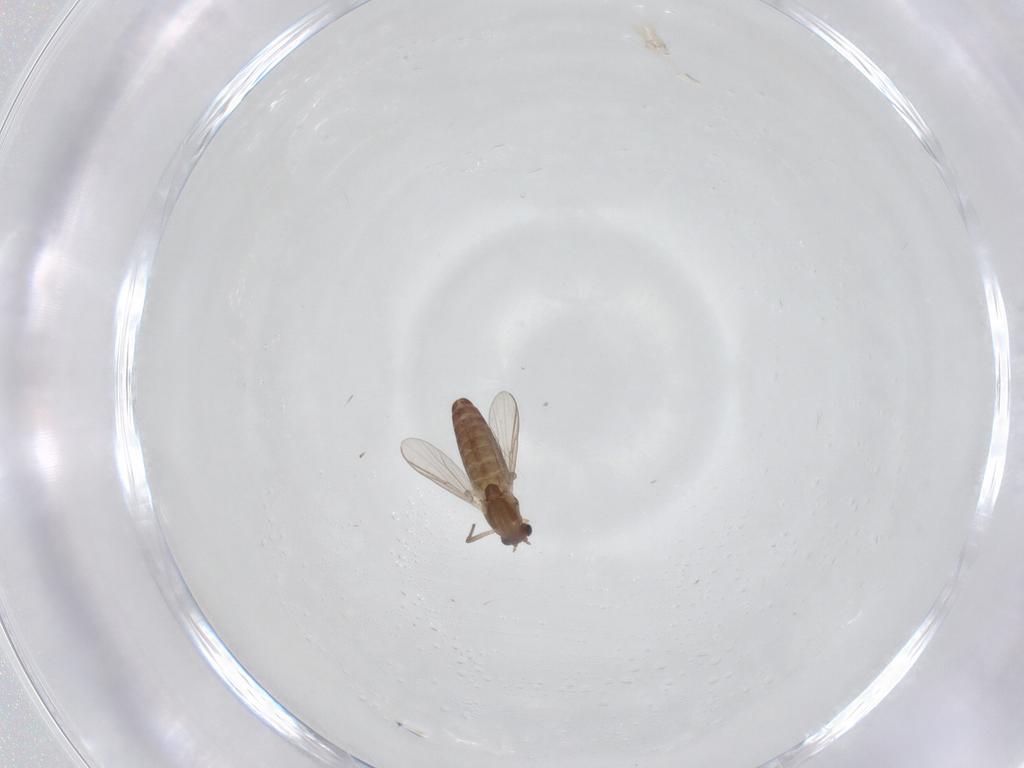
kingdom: Animalia
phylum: Arthropoda
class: Insecta
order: Diptera
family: Chironomidae
